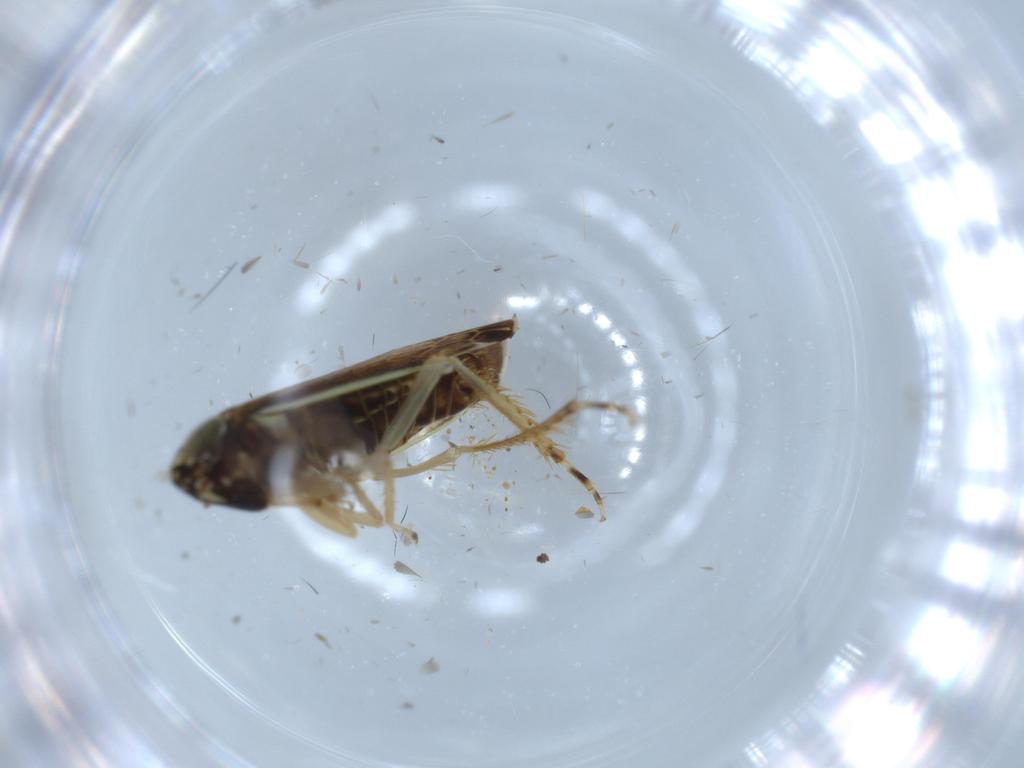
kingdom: Animalia
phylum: Arthropoda
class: Insecta
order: Hemiptera
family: Cicadellidae
